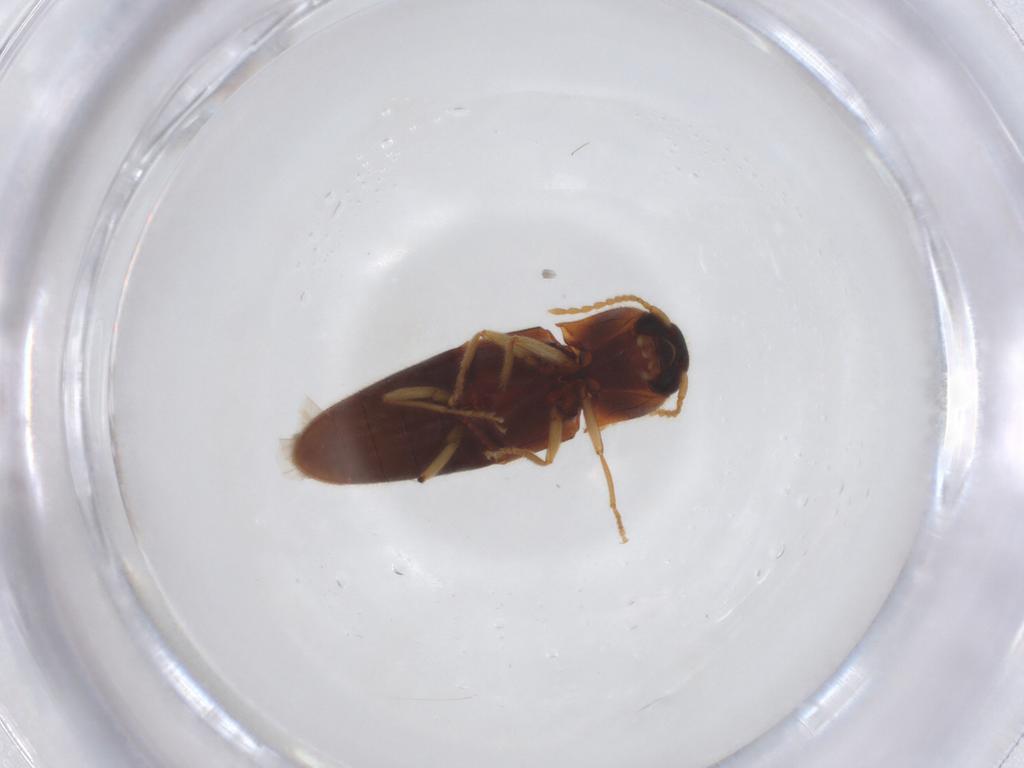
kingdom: Animalia
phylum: Arthropoda
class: Insecta
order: Coleoptera
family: Elateridae
